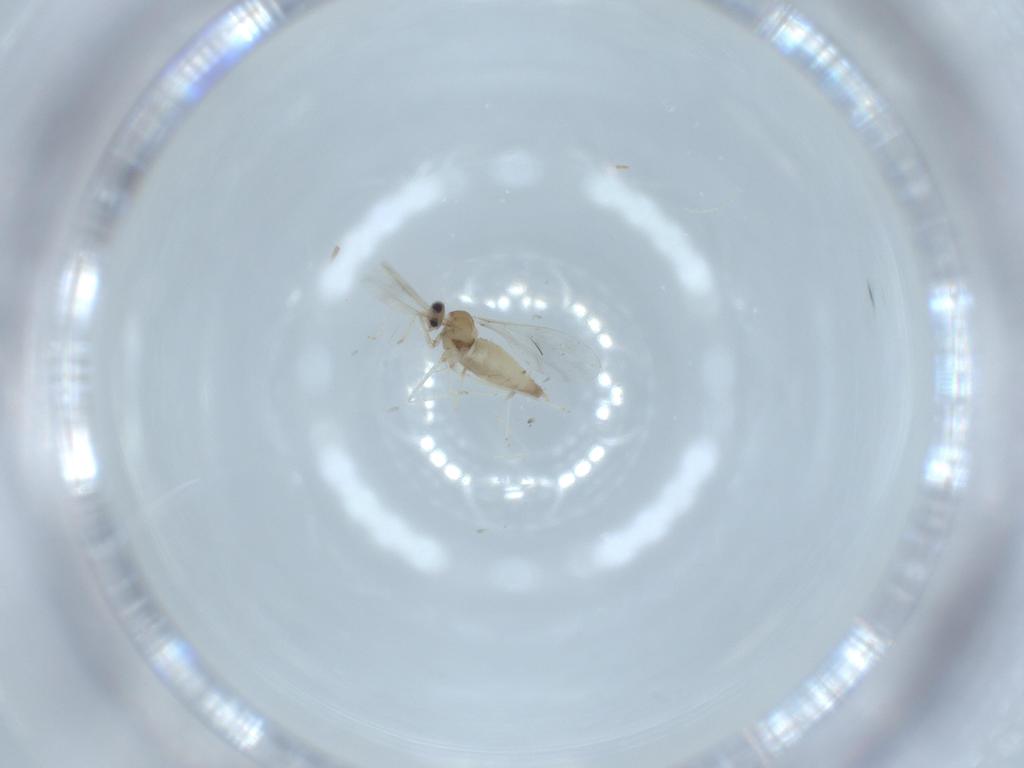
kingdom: Animalia
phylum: Arthropoda
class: Insecta
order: Diptera
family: Cecidomyiidae
